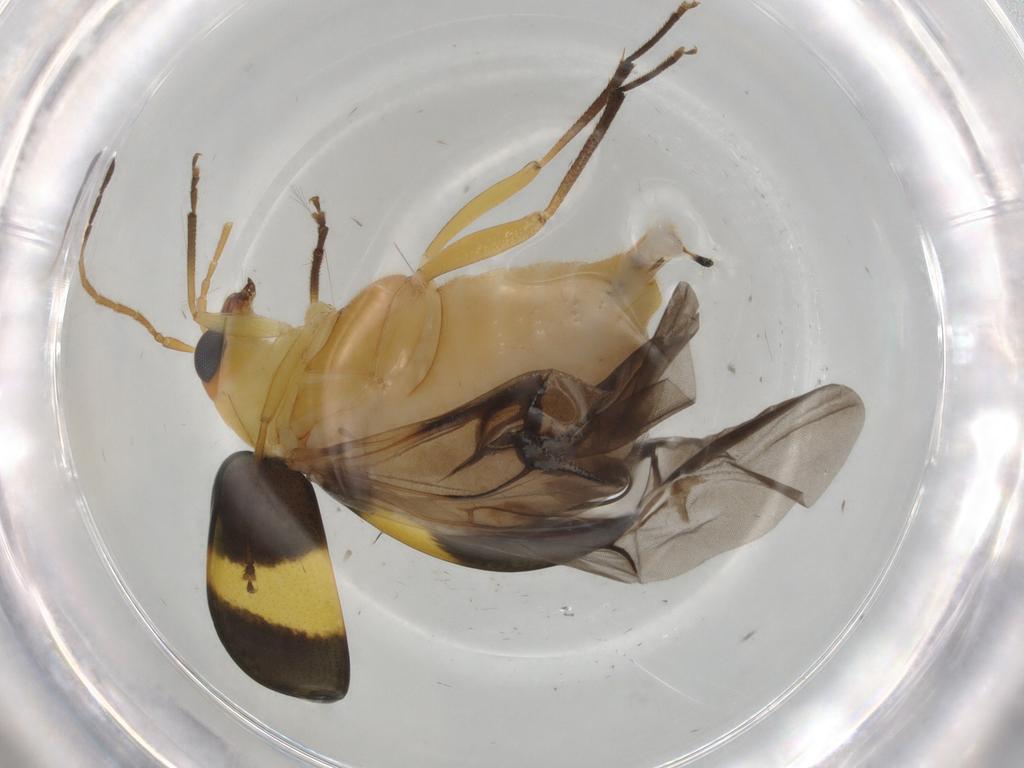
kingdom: Animalia
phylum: Arthropoda
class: Insecta
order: Coleoptera
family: Chrysomelidae
